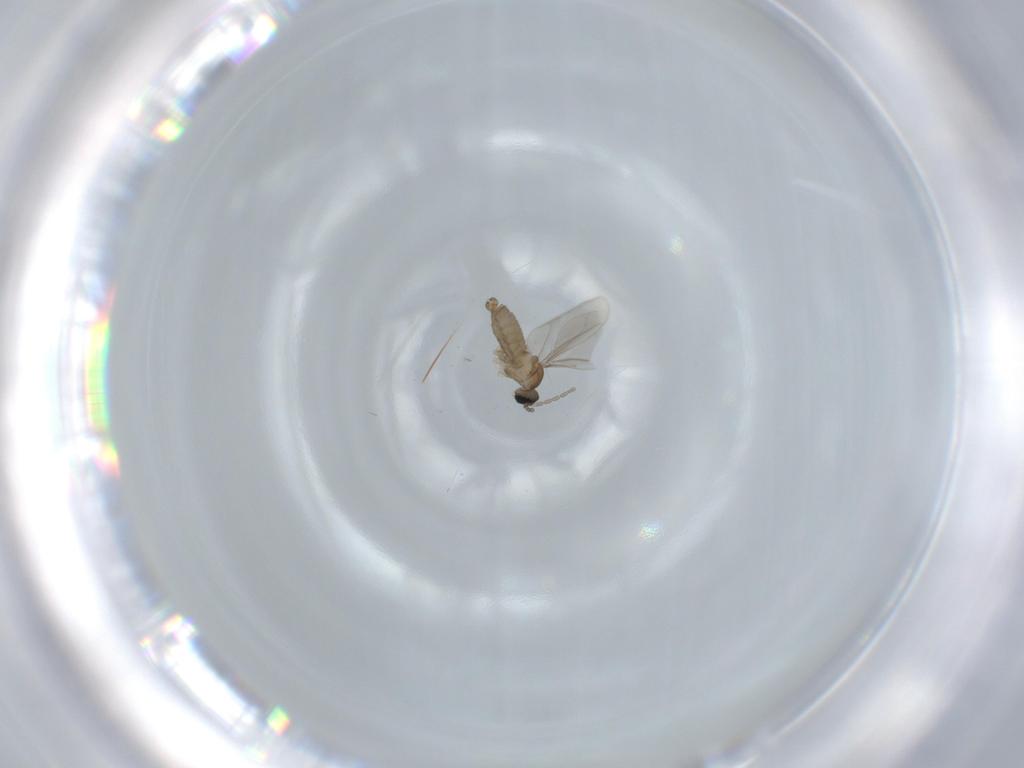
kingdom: Animalia
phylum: Arthropoda
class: Insecta
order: Diptera
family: Cecidomyiidae
